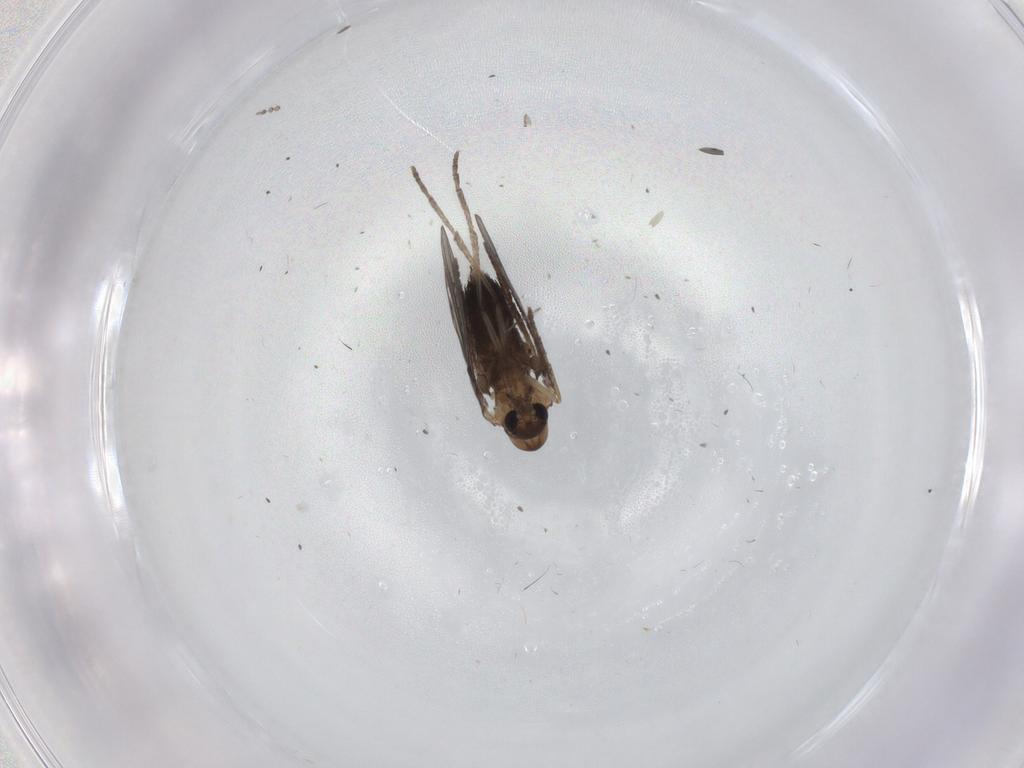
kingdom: Animalia
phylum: Arthropoda
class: Insecta
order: Diptera
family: Psychodidae
